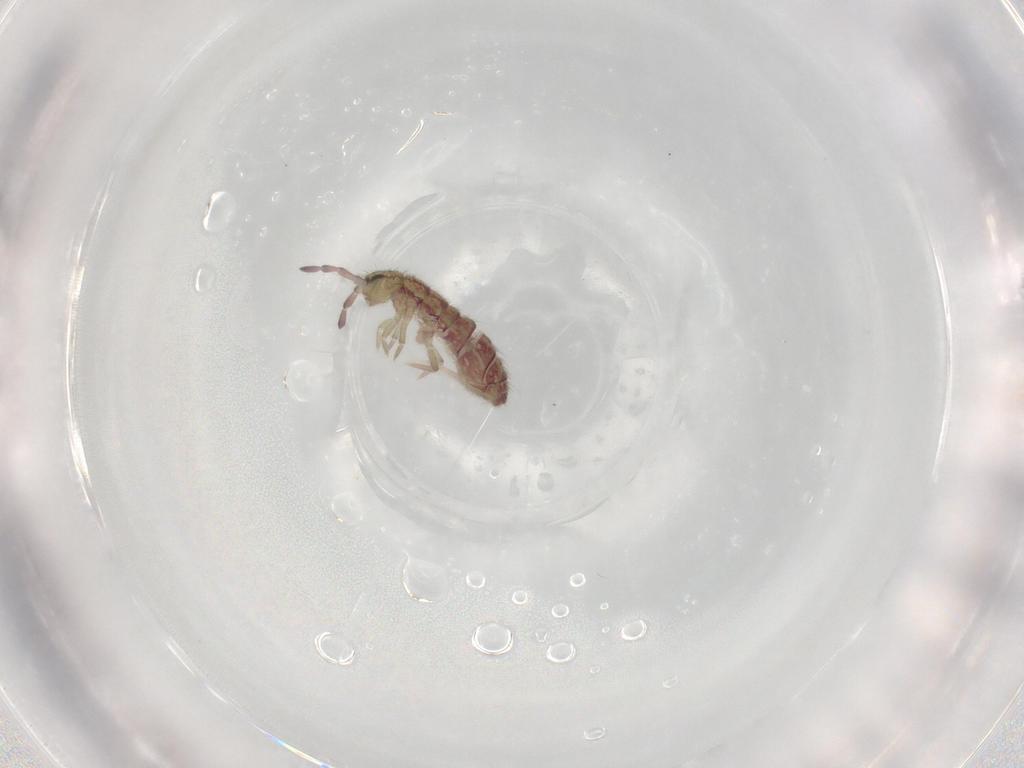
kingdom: Animalia
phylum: Arthropoda
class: Collembola
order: Entomobryomorpha
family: Isotomidae
